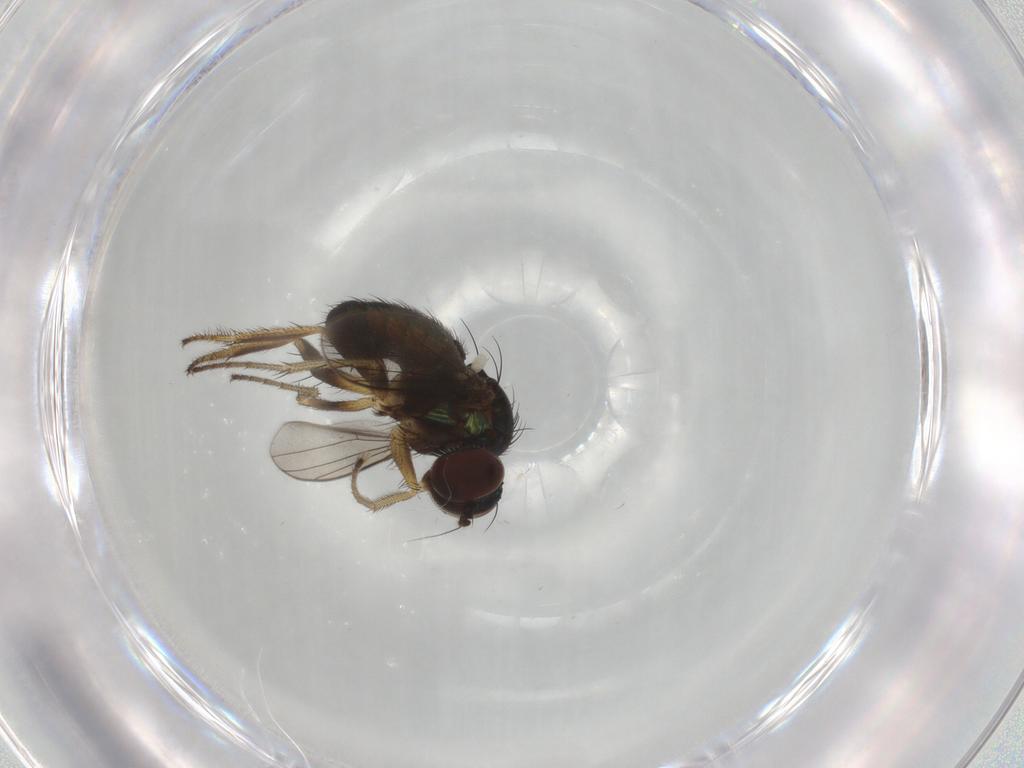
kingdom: Animalia
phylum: Arthropoda
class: Insecta
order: Diptera
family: Dolichopodidae
